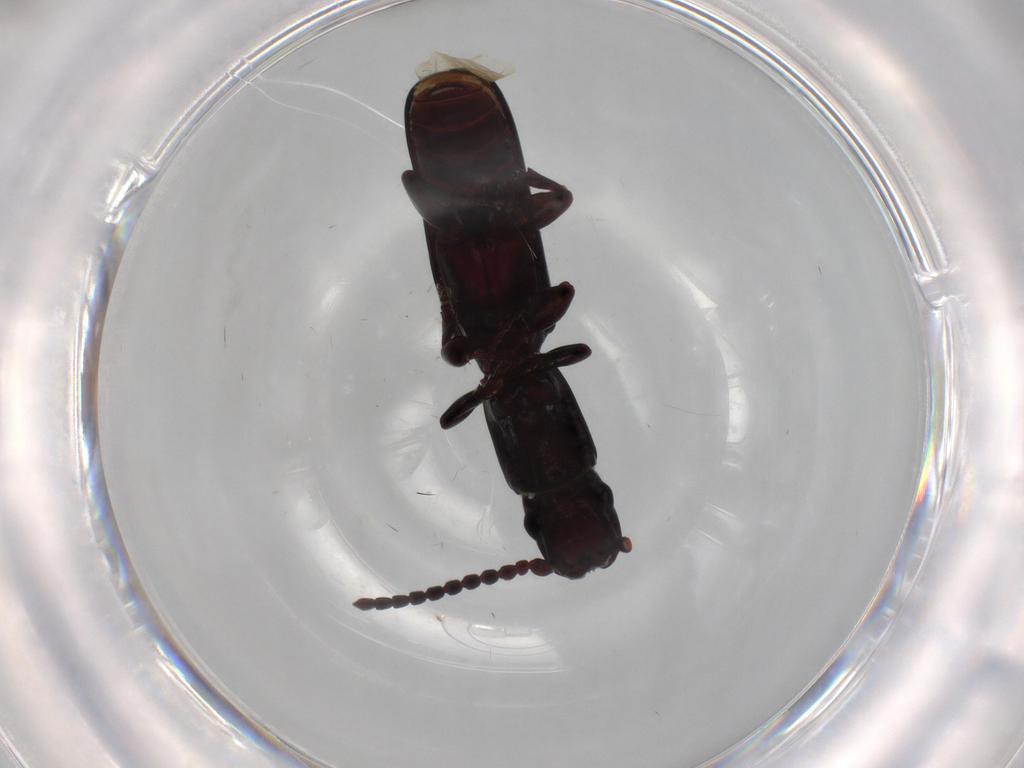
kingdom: Animalia
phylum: Arthropoda
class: Insecta
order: Coleoptera
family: Passandridae
